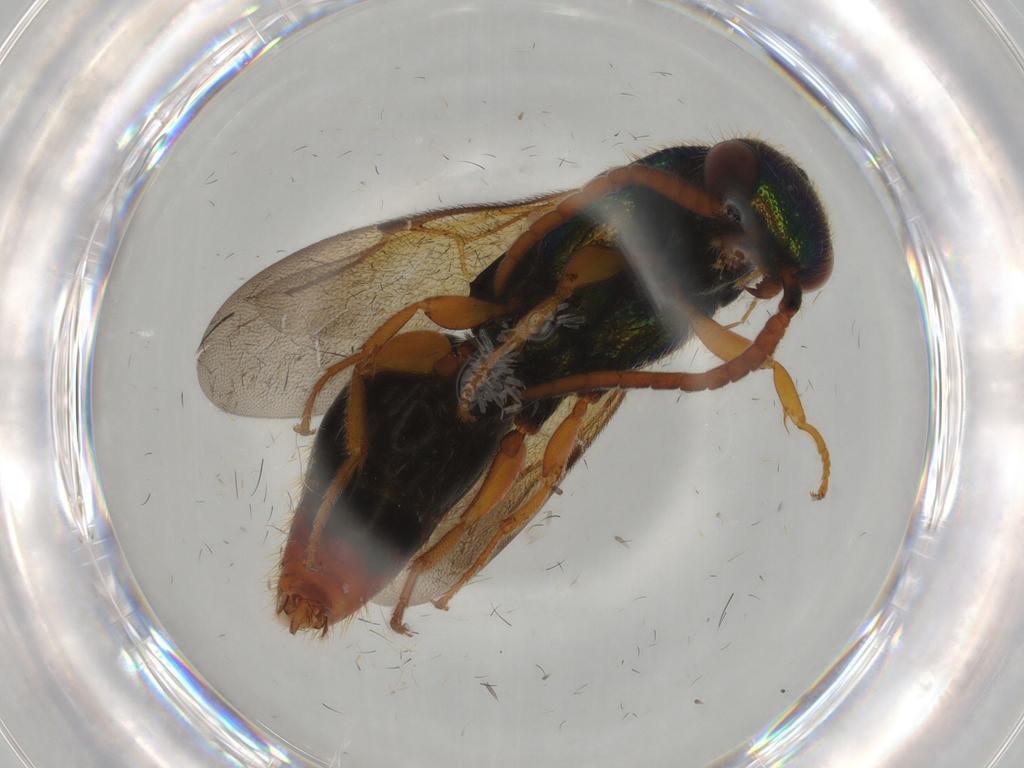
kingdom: Animalia
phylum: Arthropoda
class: Insecta
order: Hymenoptera
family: Bethylidae
